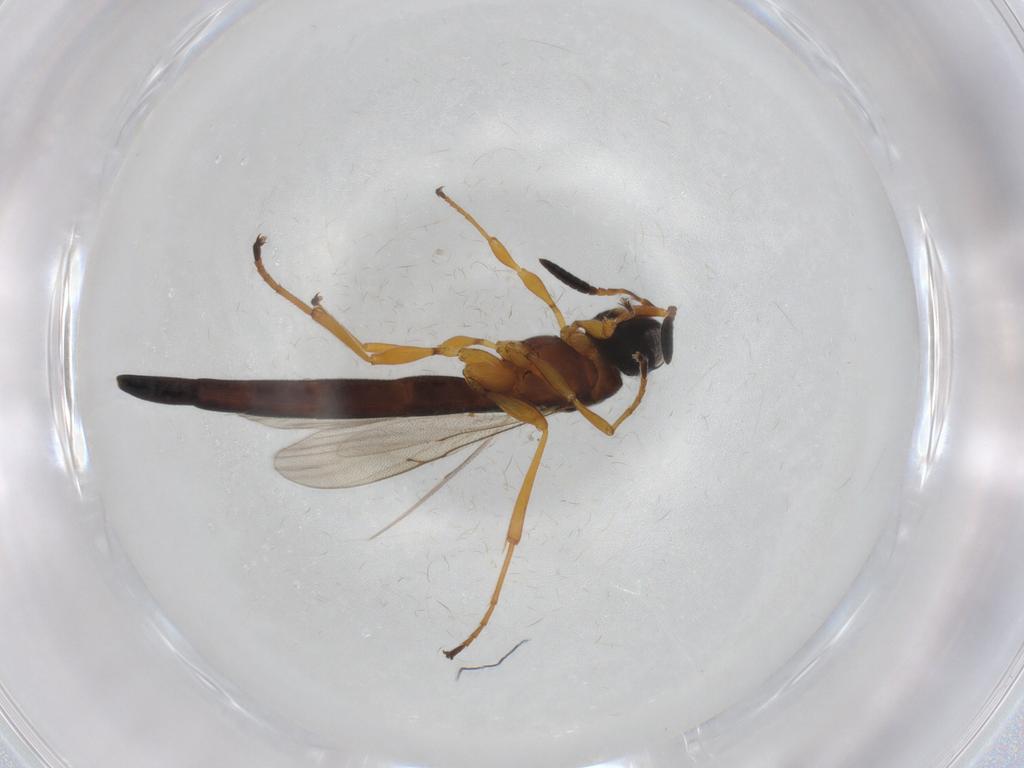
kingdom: Animalia
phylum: Arthropoda
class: Insecta
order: Hymenoptera
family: Scelionidae
